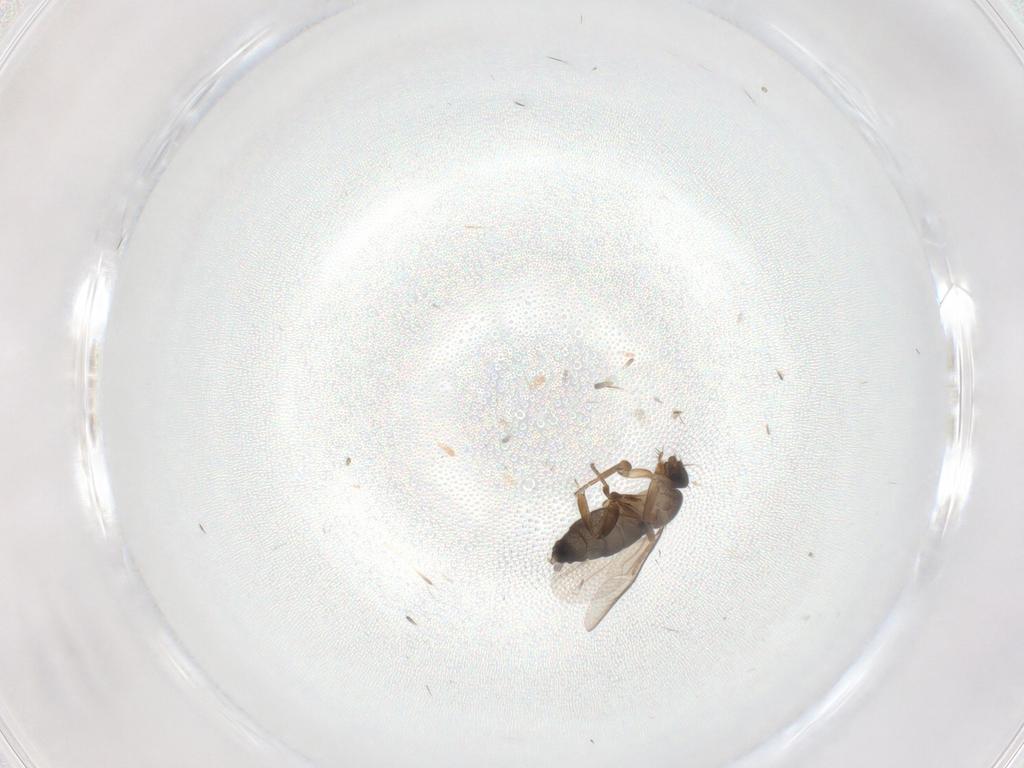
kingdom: Animalia
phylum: Arthropoda
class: Insecta
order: Diptera
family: Phoridae
